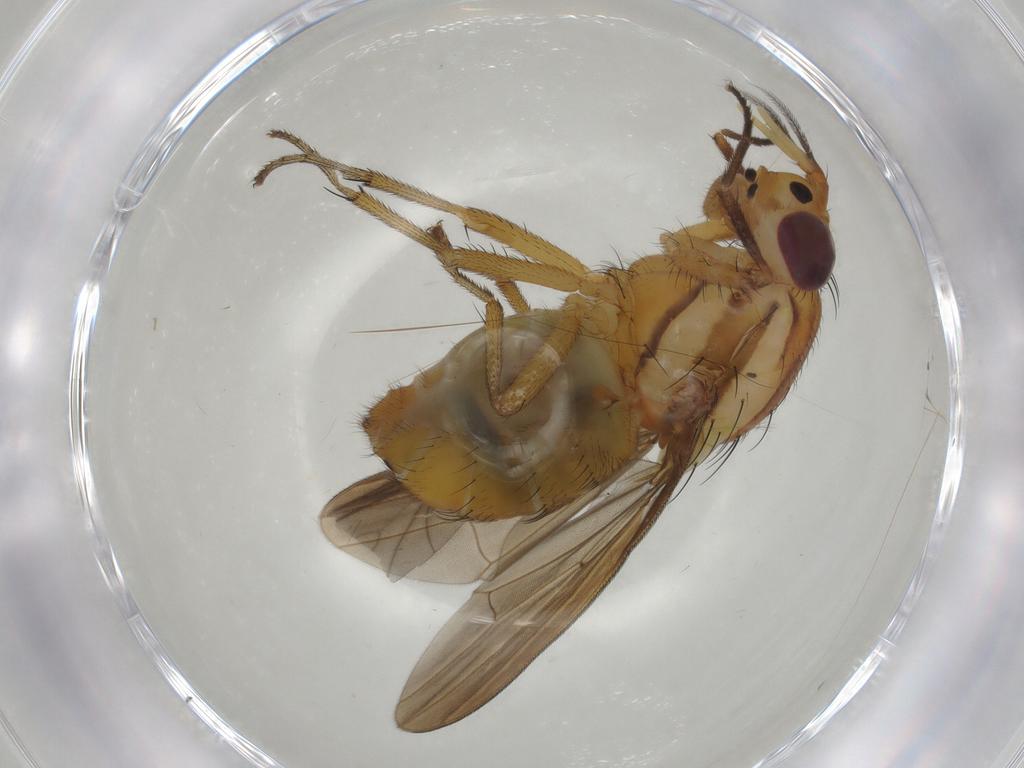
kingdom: Animalia
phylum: Arthropoda
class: Insecta
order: Diptera
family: Lauxaniidae
